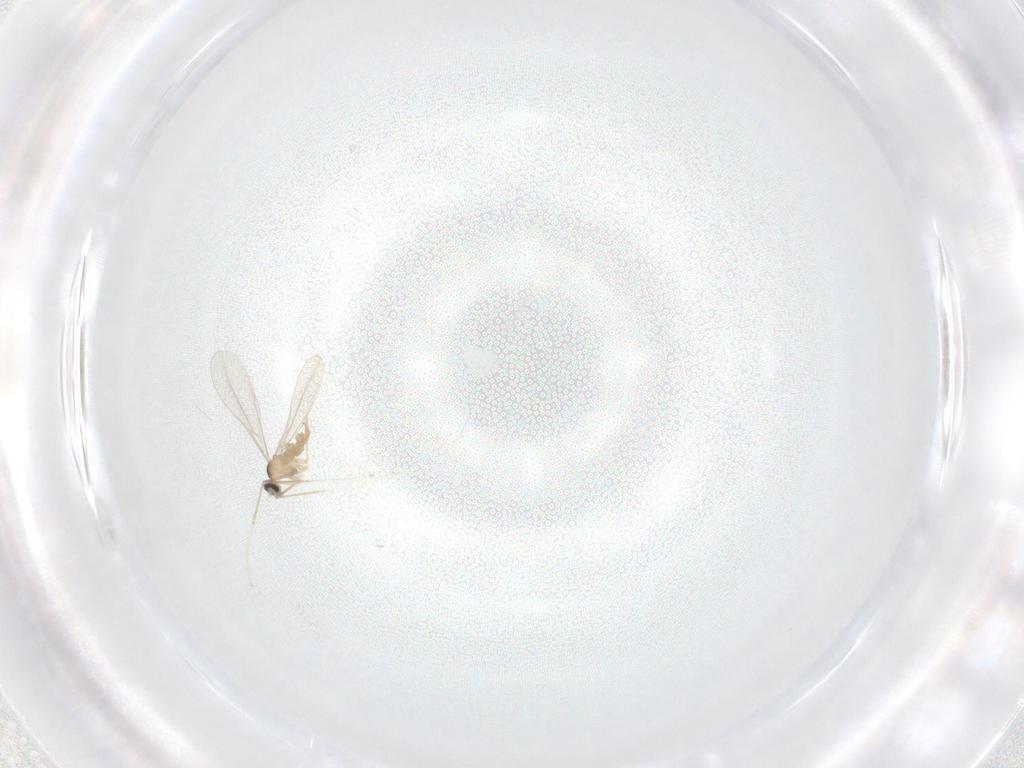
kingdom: Animalia
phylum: Arthropoda
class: Insecta
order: Diptera
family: Cecidomyiidae
